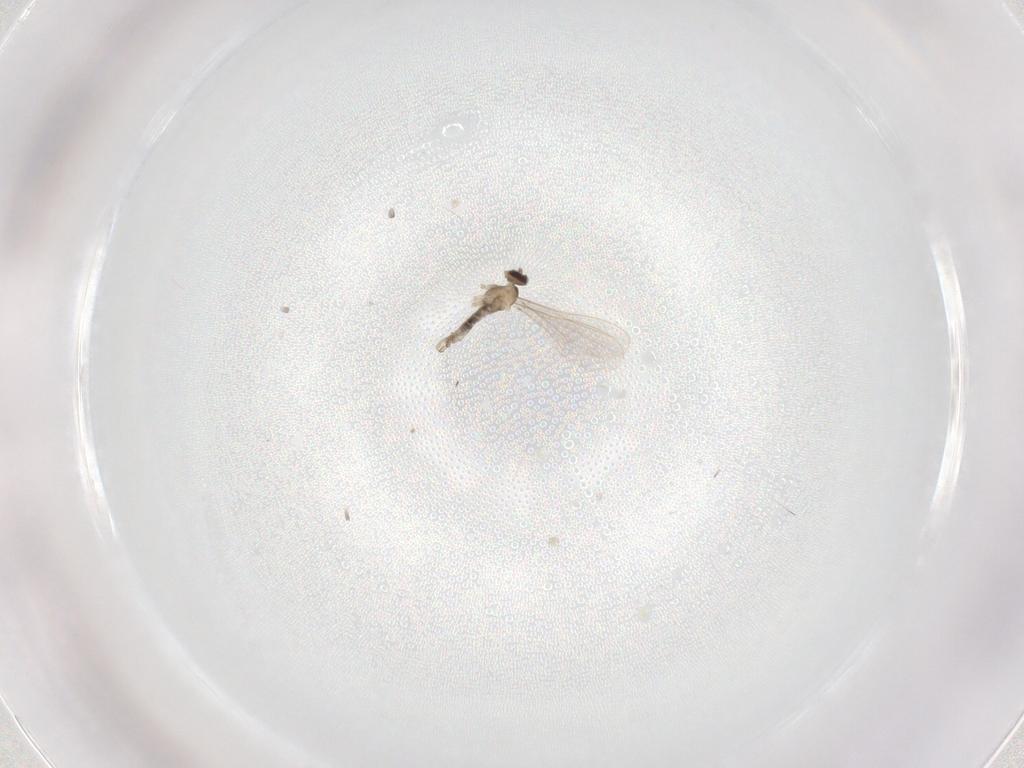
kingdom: Animalia
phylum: Arthropoda
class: Insecta
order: Diptera
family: Cecidomyiidae
